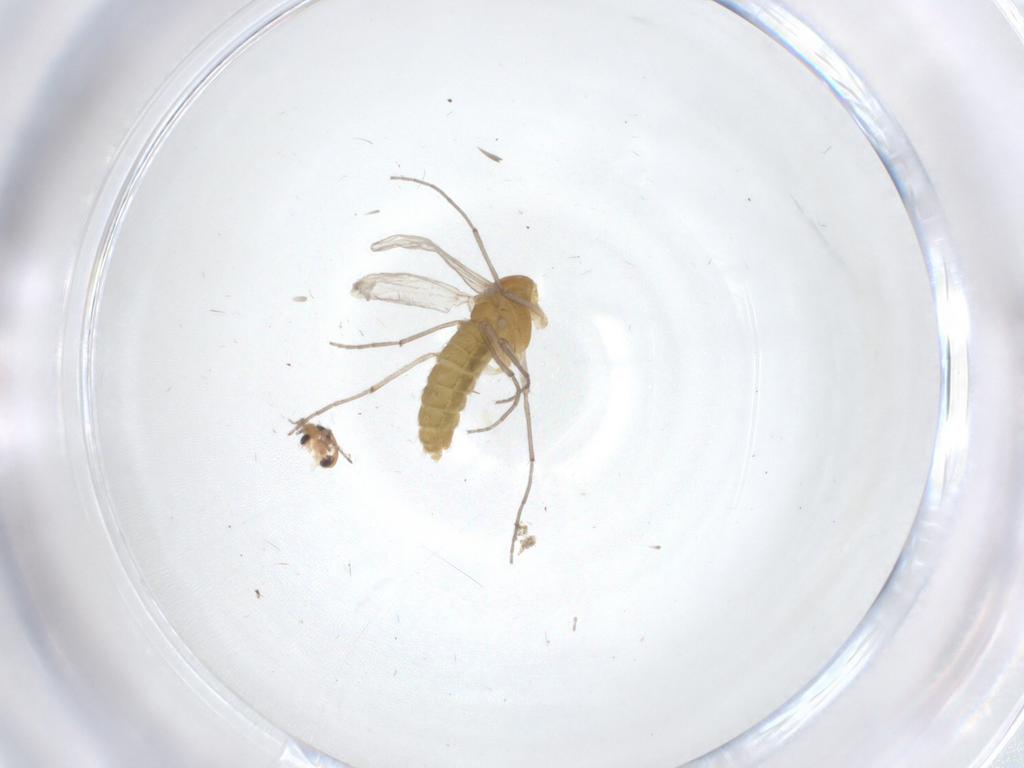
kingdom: Animalia
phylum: Arthropoda
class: Insecta
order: Diptera
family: Chironomidae
